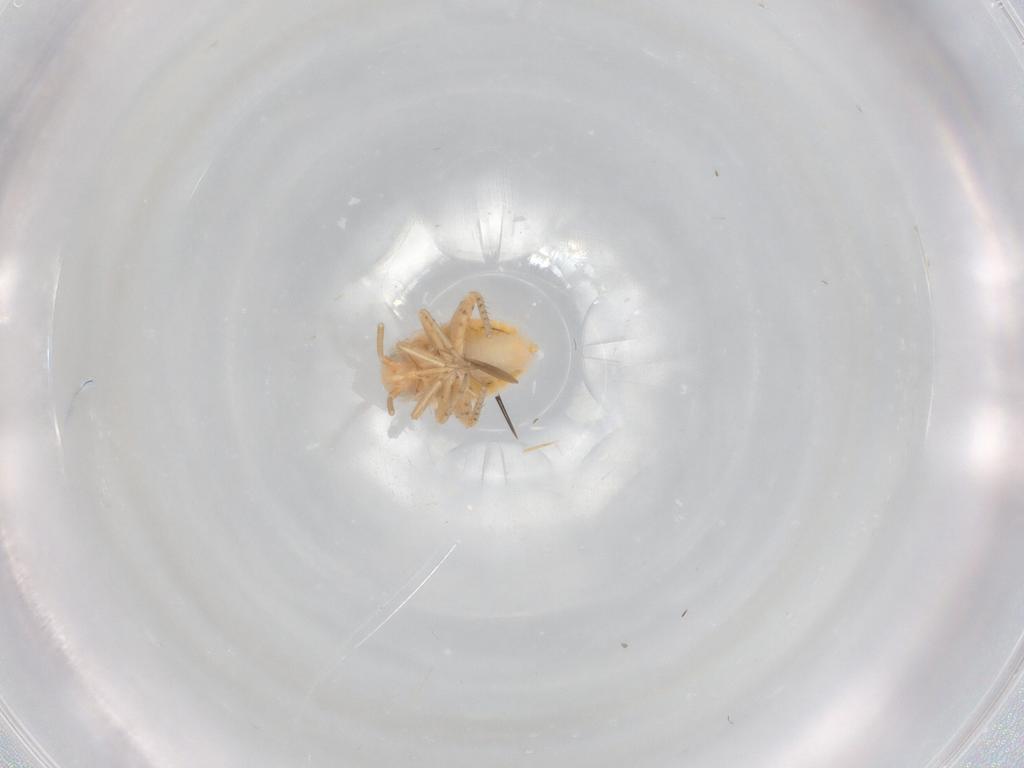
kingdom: Animalia
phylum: Arthropoda
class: Insecta
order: Hemiptera
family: Miridae
